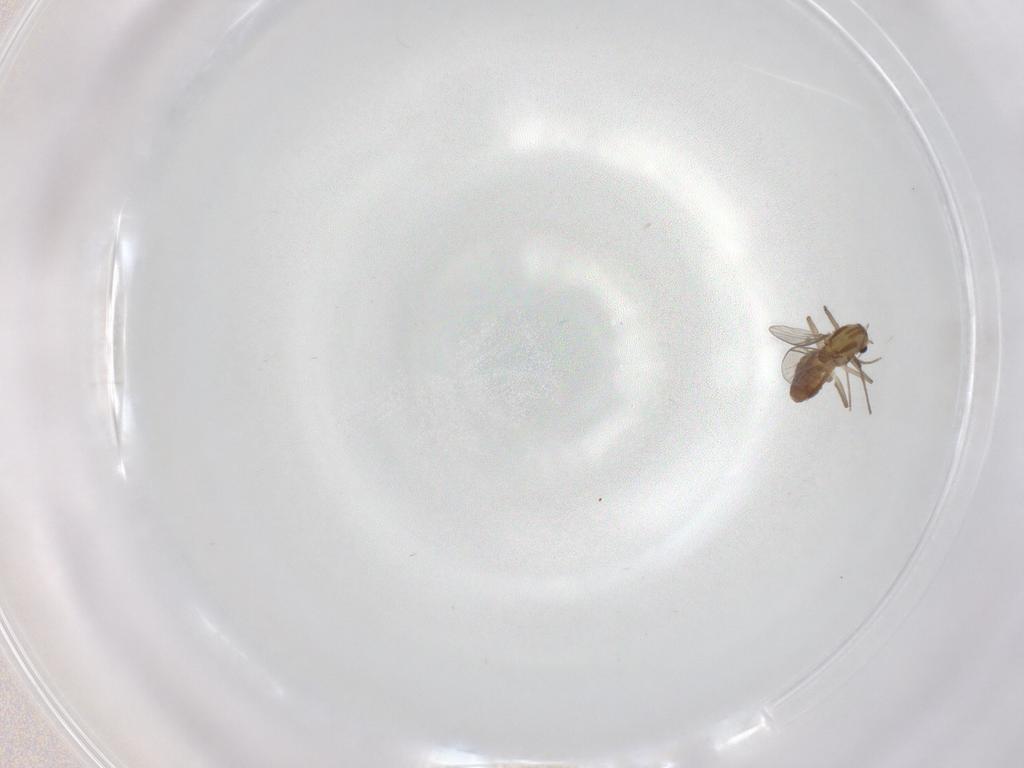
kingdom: Animalia
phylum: Arthropoda
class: Insecta
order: Diptera
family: Chironomidae
